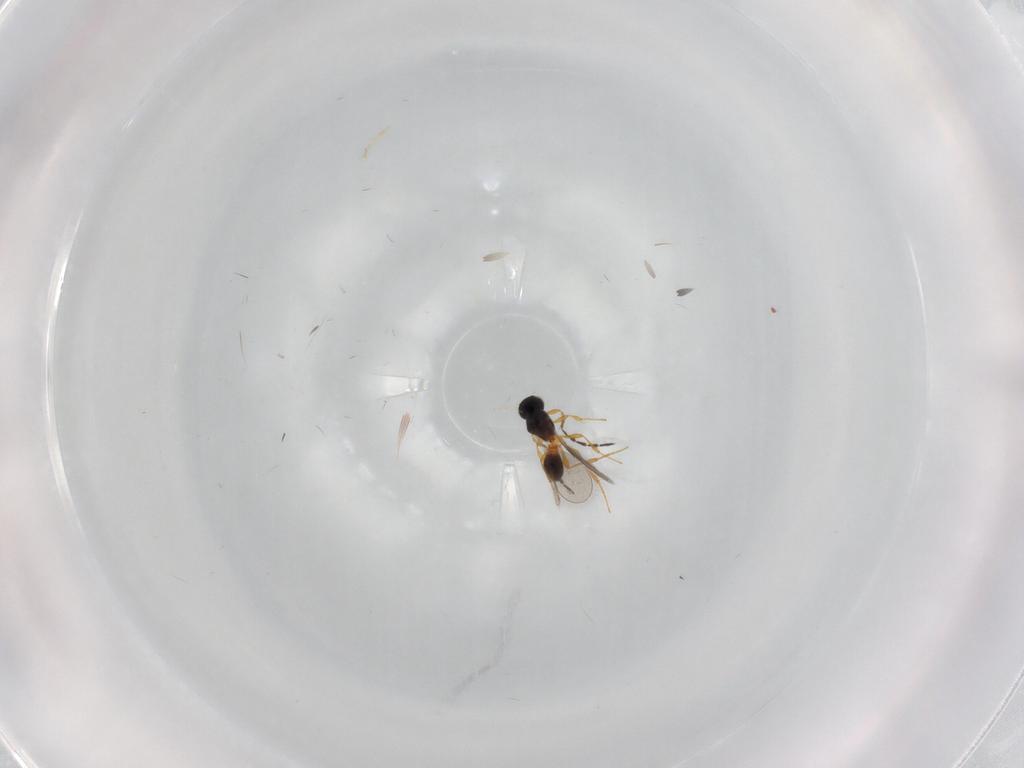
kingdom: Animalia
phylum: Arthropoda
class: Insecta
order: Hymenoptera
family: Platygastridae
